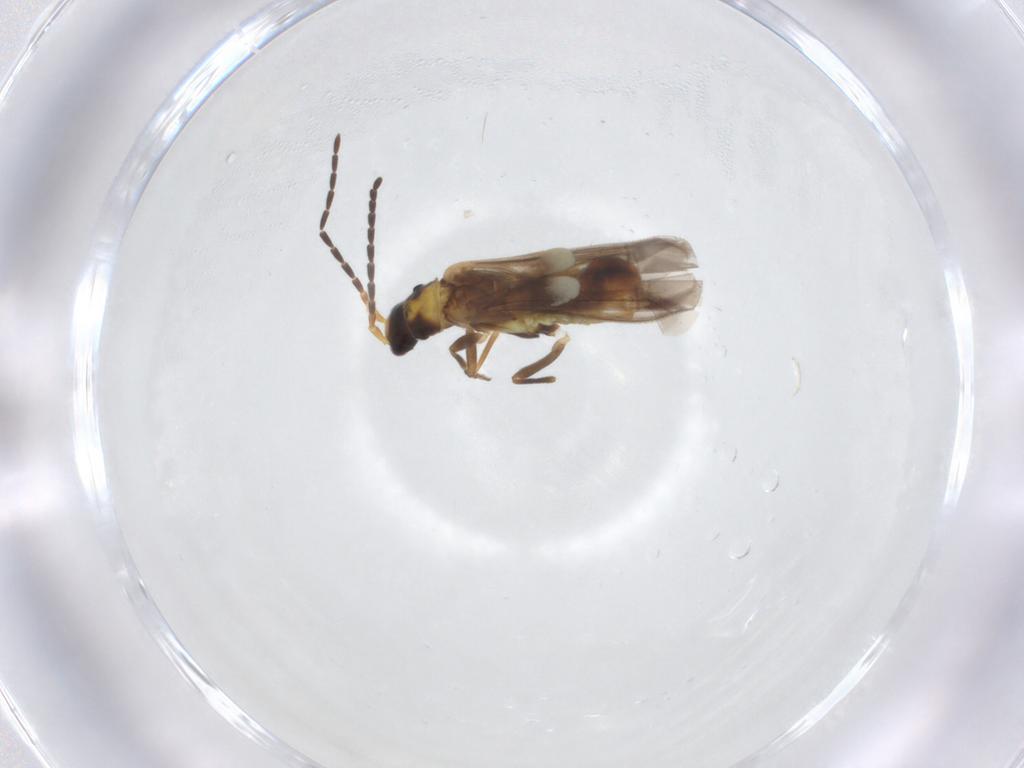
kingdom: Animalia
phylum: Arthropoda
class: Insecta
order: Coleoptera
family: Cantharidae
